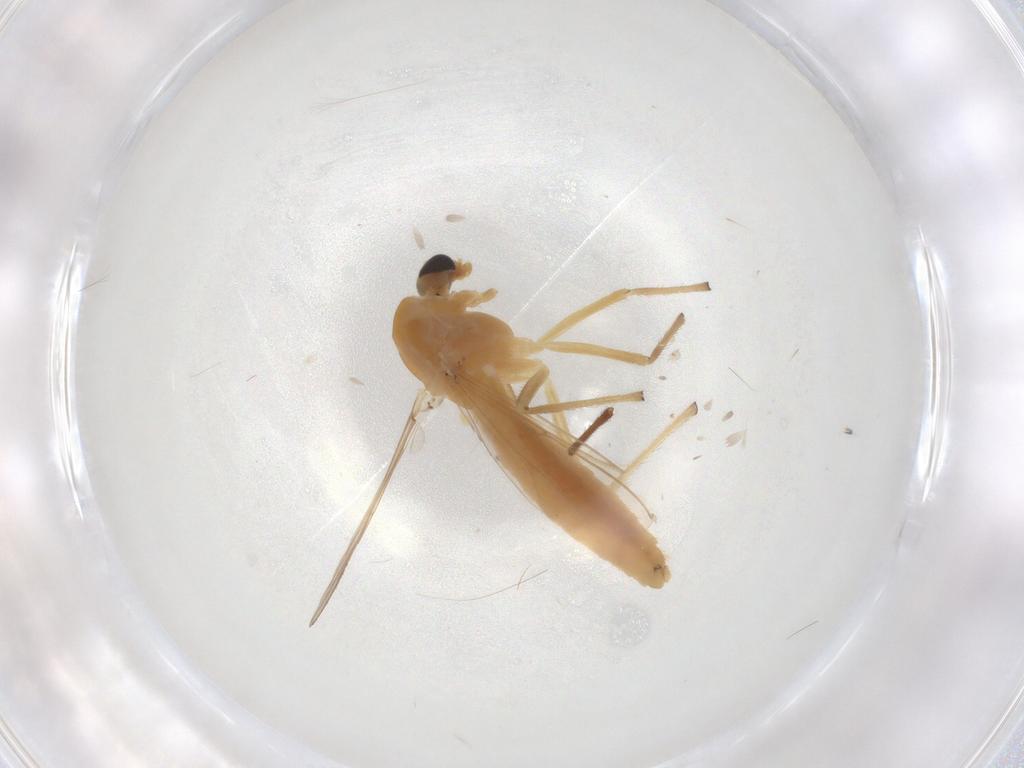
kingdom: Animalia
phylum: Arthropoda
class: Insecta
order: Diptera
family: Chironomidae
